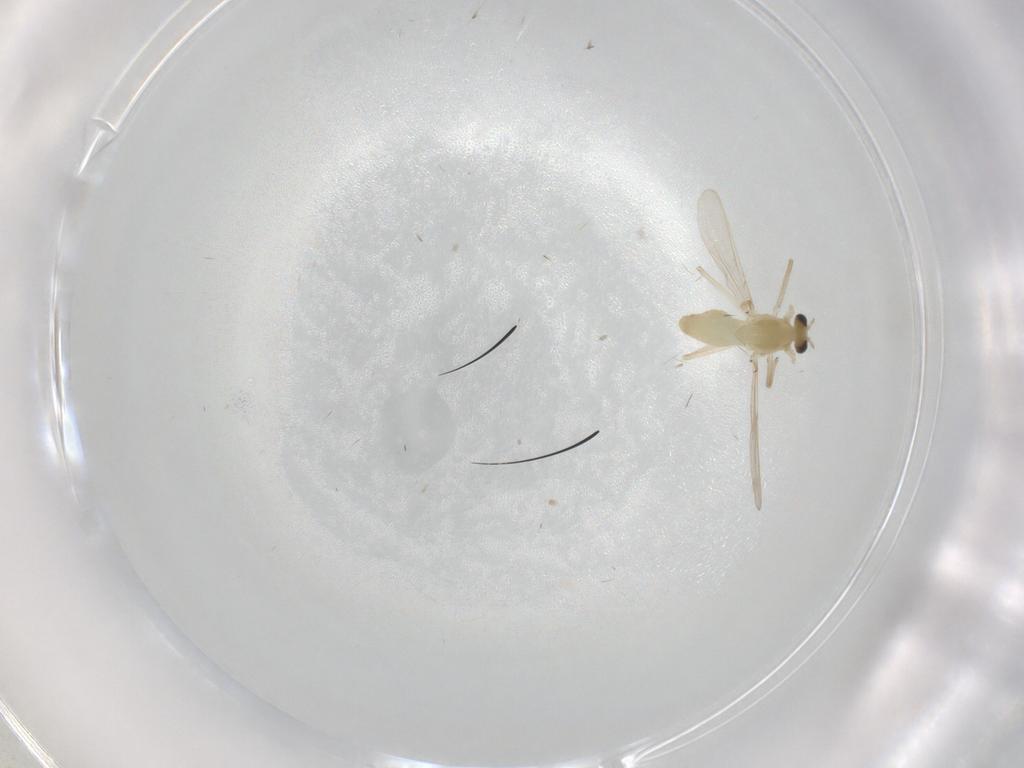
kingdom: Animalia
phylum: Arthropoda
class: Insecta
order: Diptera
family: Chironomidae
